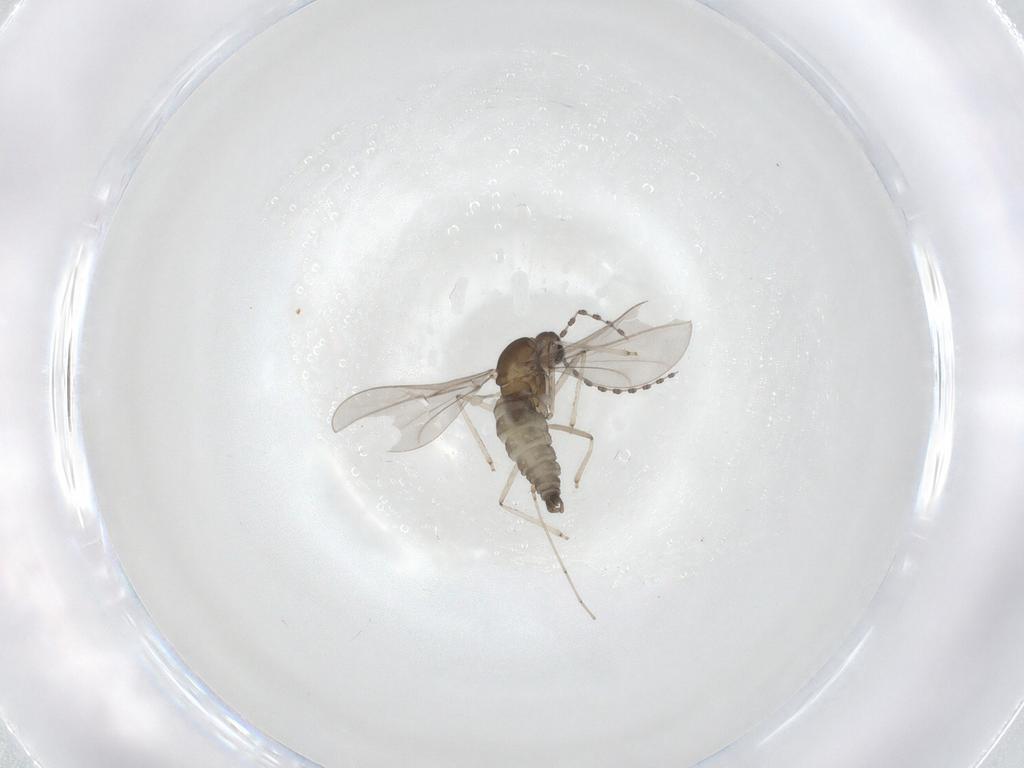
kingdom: Animalia
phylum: Arthropoda
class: Insecta
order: Diptera
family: Cecidomyiidae
